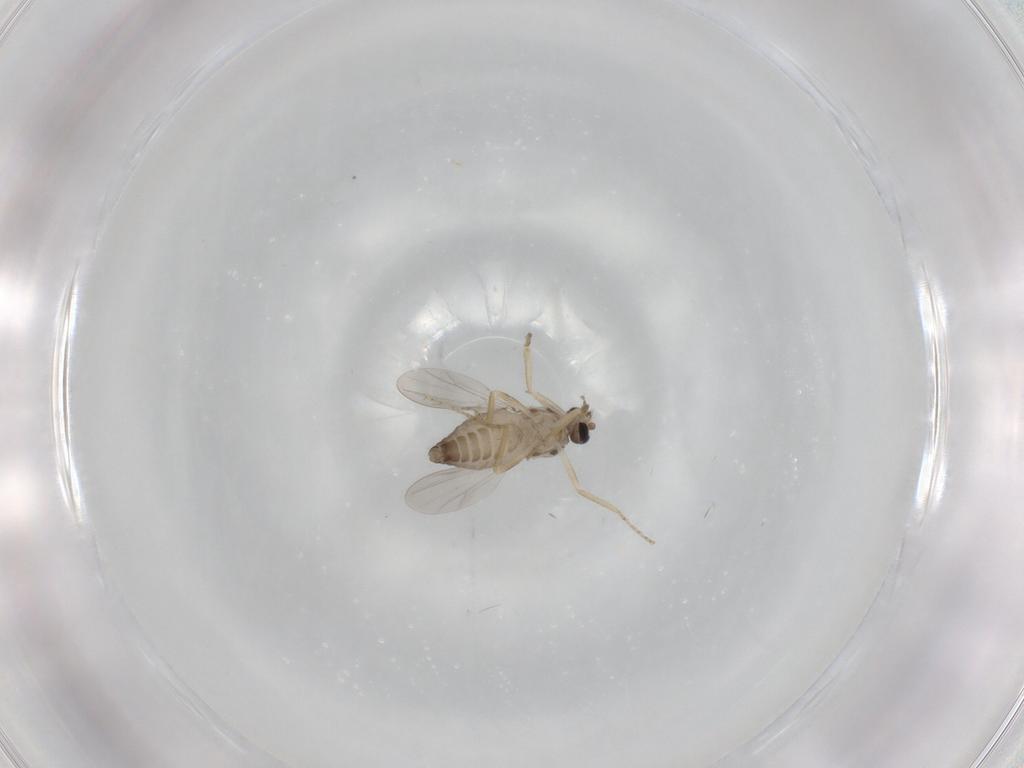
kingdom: Animalia
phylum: Arthropoda
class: Insecta
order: Diptera
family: Ceratopogonidae
